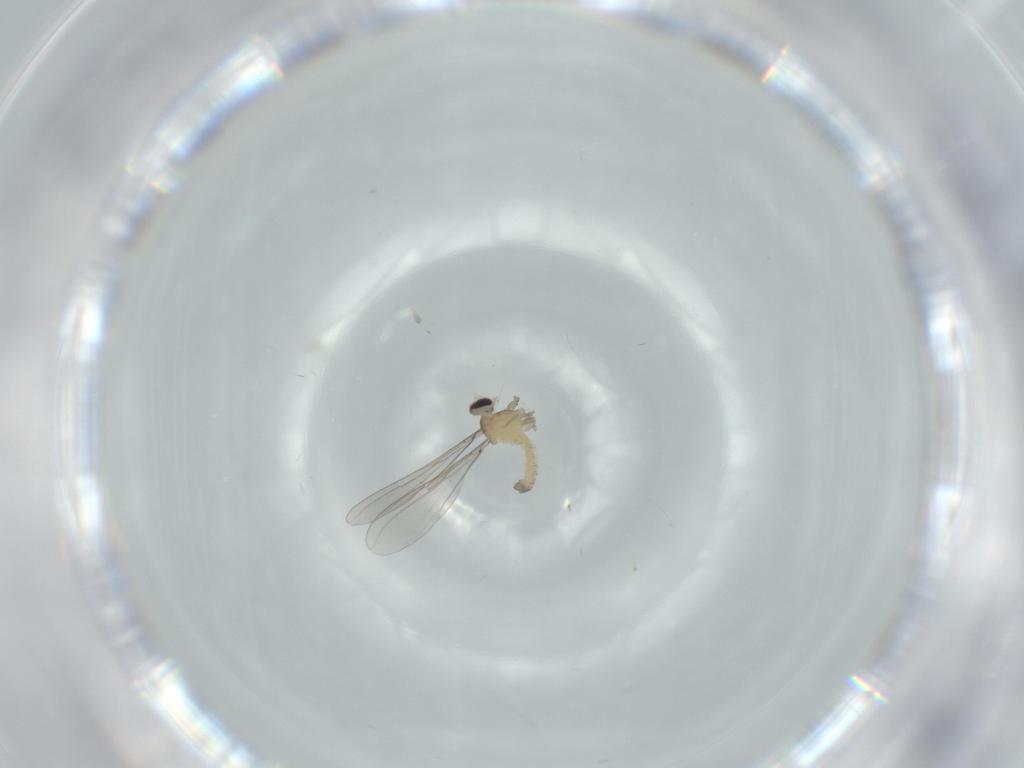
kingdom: Animalia
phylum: Arthropoda
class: Insecta
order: Diptera
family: Cecidomyiidae
